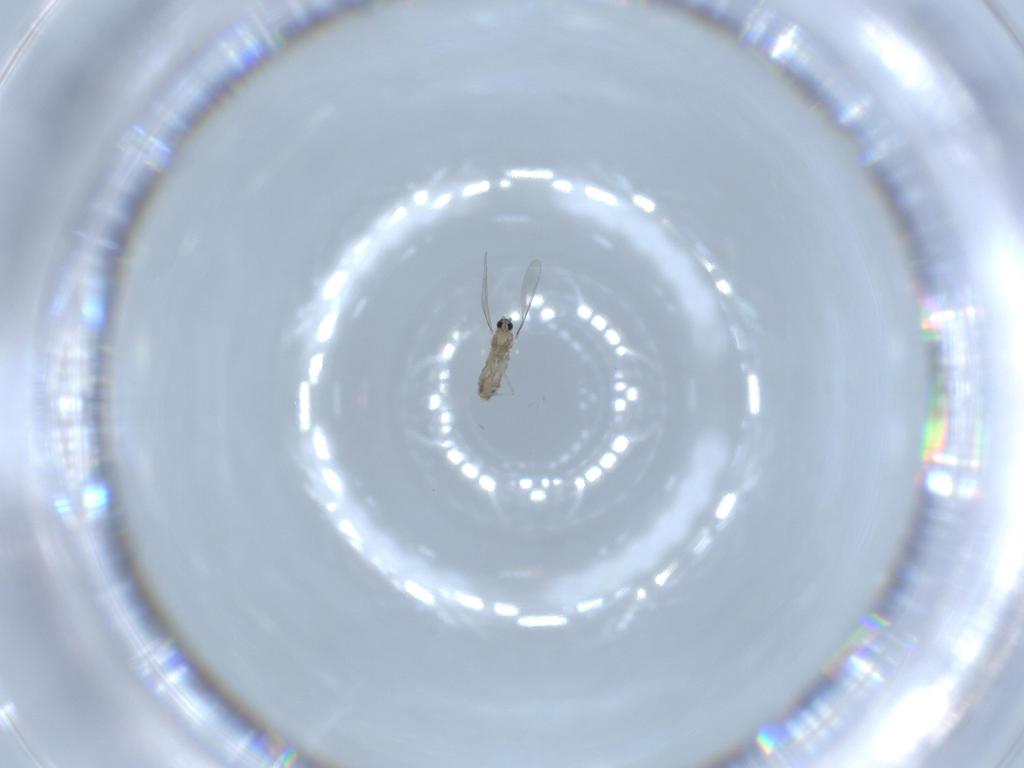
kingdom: Animalia
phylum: Arthropoda
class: Insecta
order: Diptera
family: Cecidomyiidae
